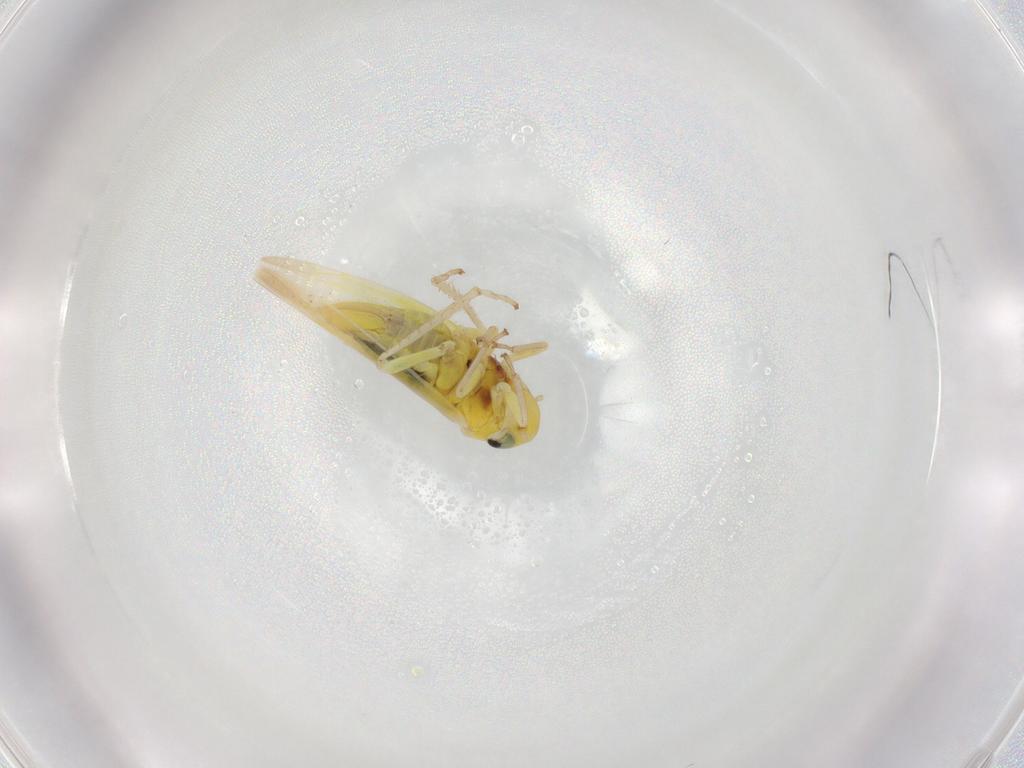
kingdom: Animalia
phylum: Arthropoda
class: Insecta
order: Hemiptera
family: Cicadellidae
